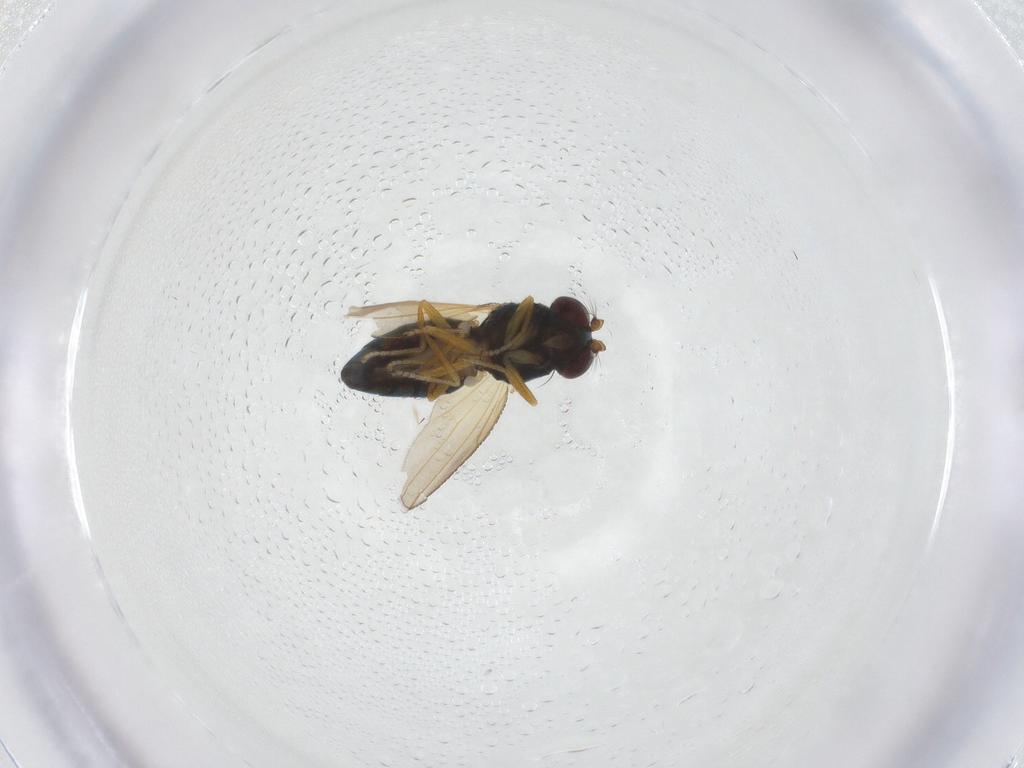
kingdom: Animalia
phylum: Arthropoda
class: Insecta
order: Diptera
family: Ephydridae
